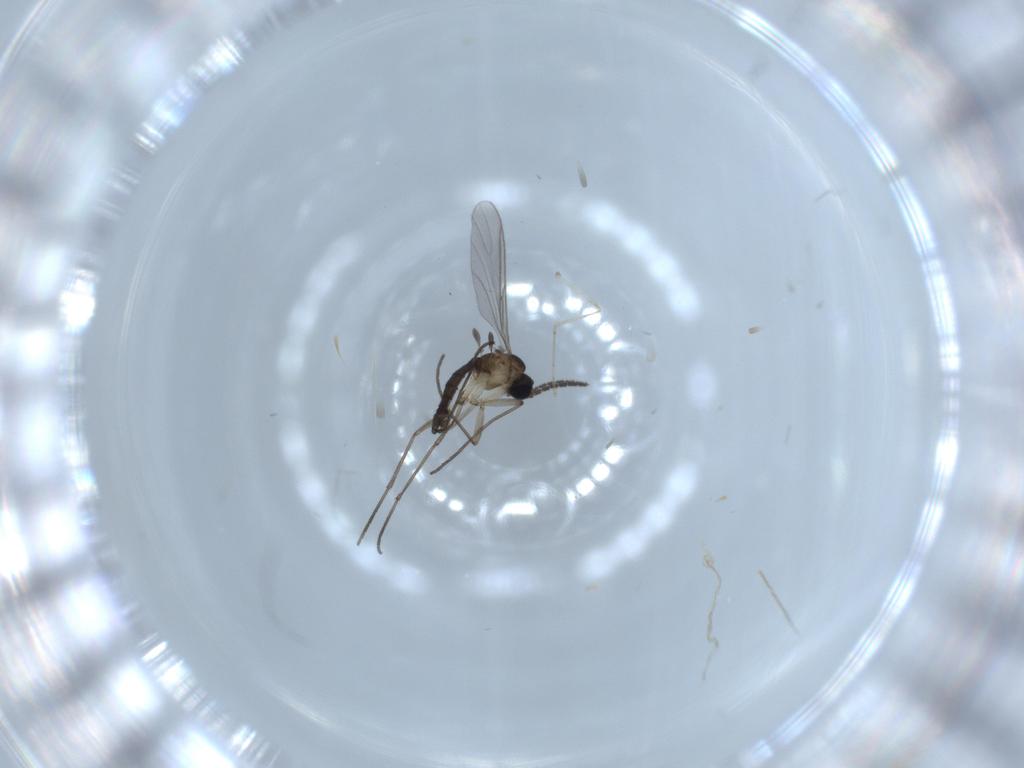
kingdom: Animalia
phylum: Arthropoda
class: Insecta
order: Diptera
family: Sciaridae
